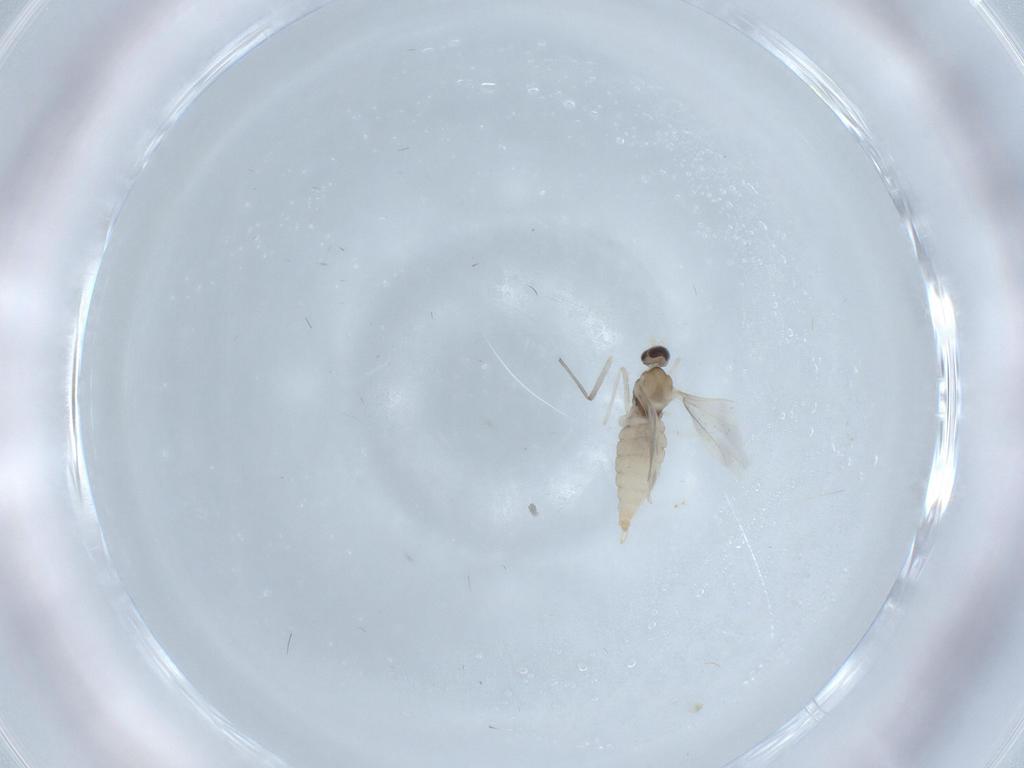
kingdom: Animalia
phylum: Arthropoda
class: Insecta
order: Diptera
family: Cecidomyiidae
